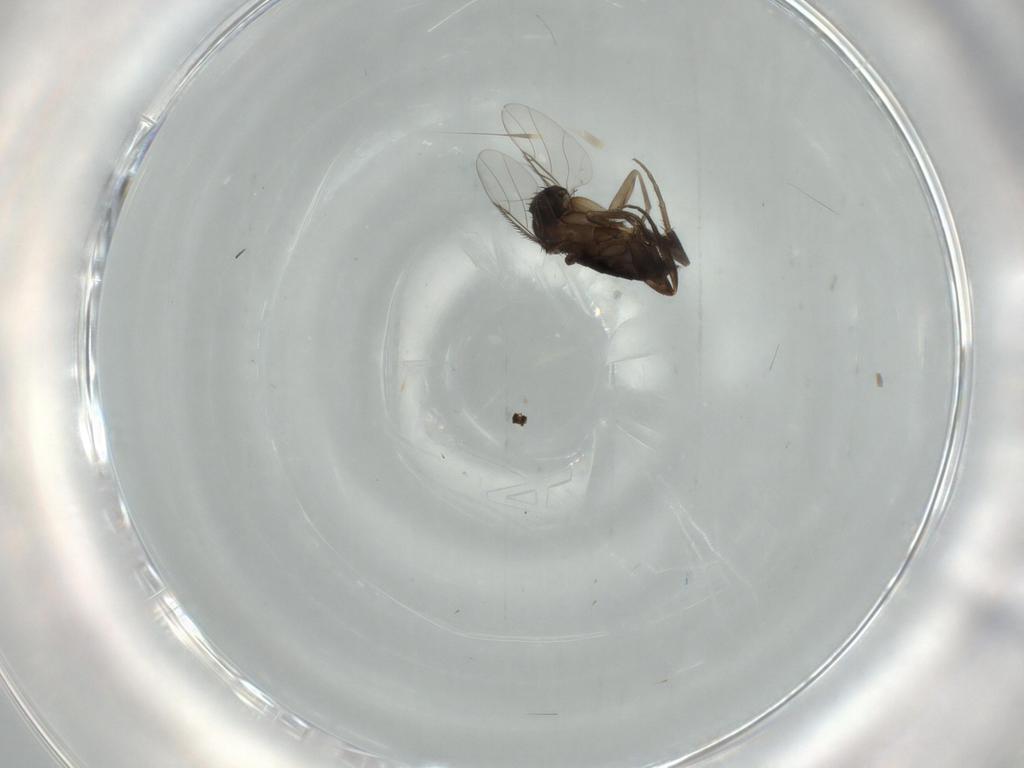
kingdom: Animalia
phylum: Arthropoda
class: Insecta
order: Diptera
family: Phoridae
